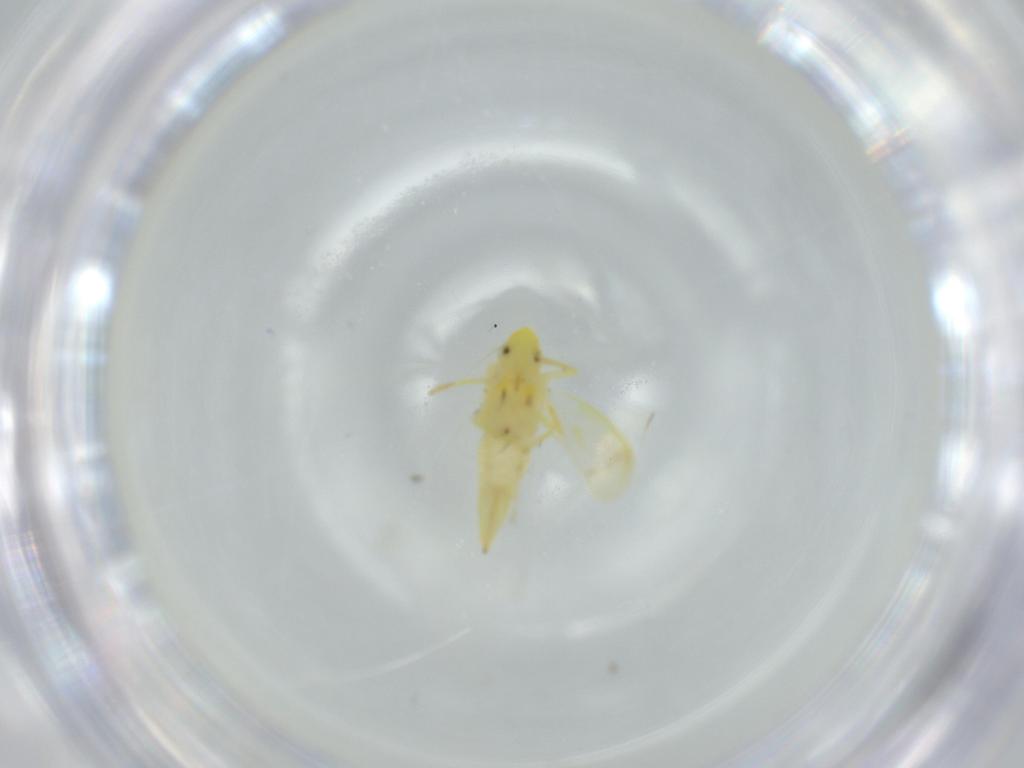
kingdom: Animalia
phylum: Arthropoda
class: Insecta
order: Hemiptera
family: Cicadellidae
